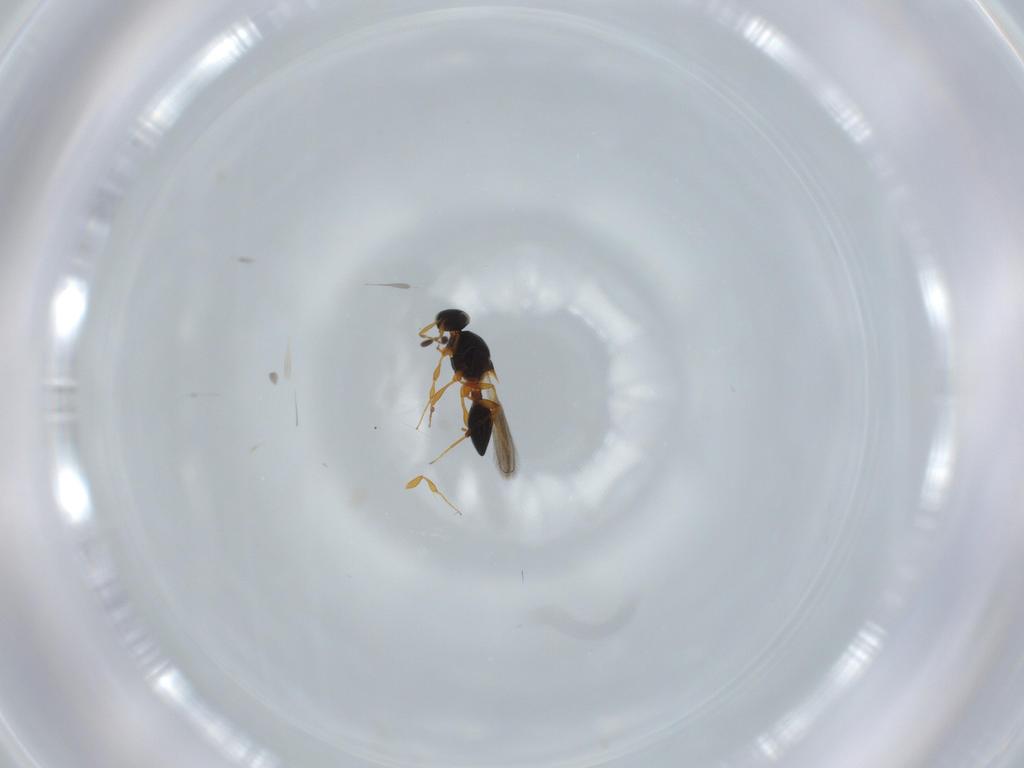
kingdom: Animalia
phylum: Arthropoda
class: Insecta
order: Hymenoptera
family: Platygastridae
